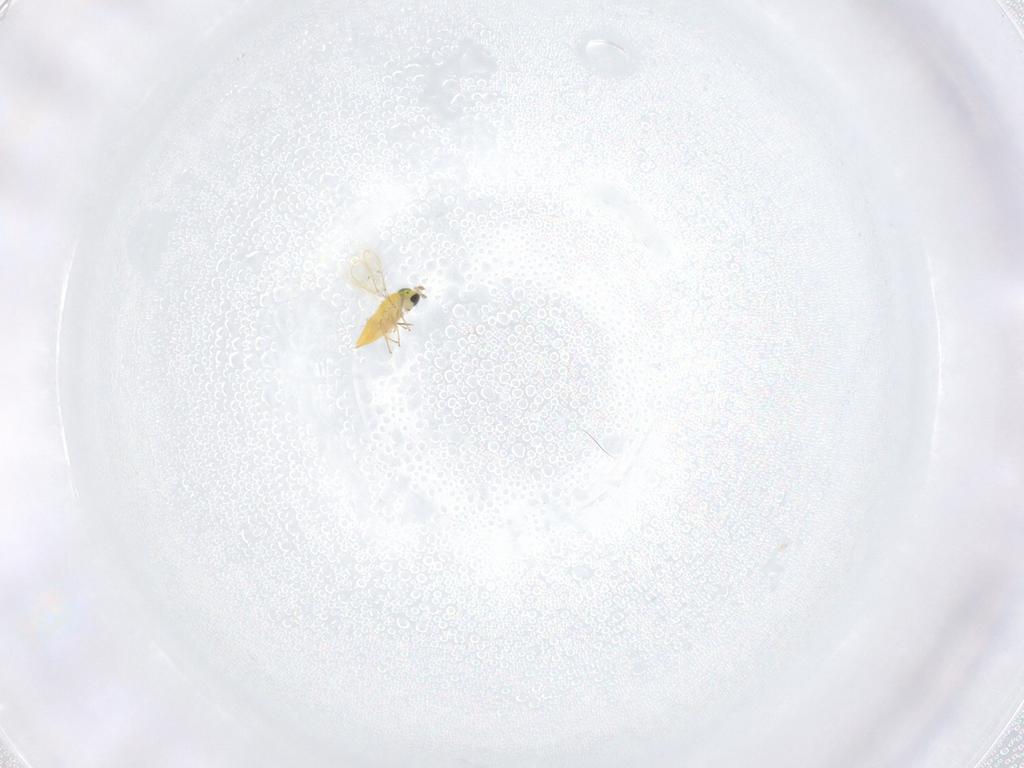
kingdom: Animalia
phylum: Arthropoda
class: Insecta
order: Hymenoptera
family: Trichogrammatidae
